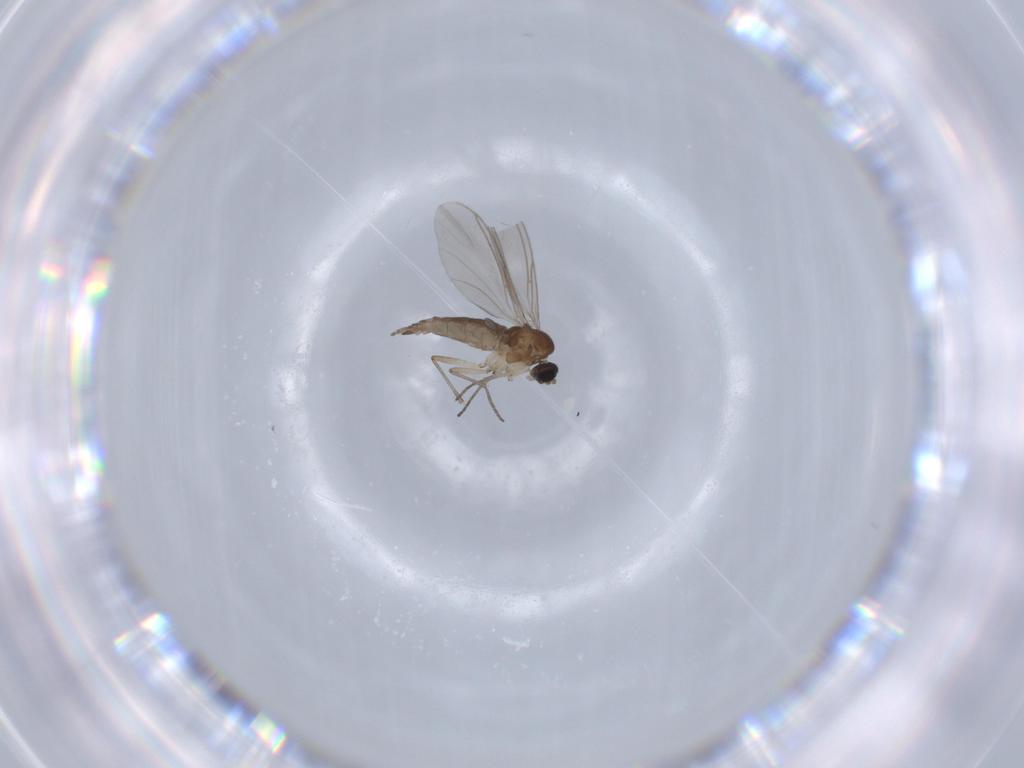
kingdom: Animalia
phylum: Arthropoda
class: Insecta
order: Diptera
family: Sciaridae
